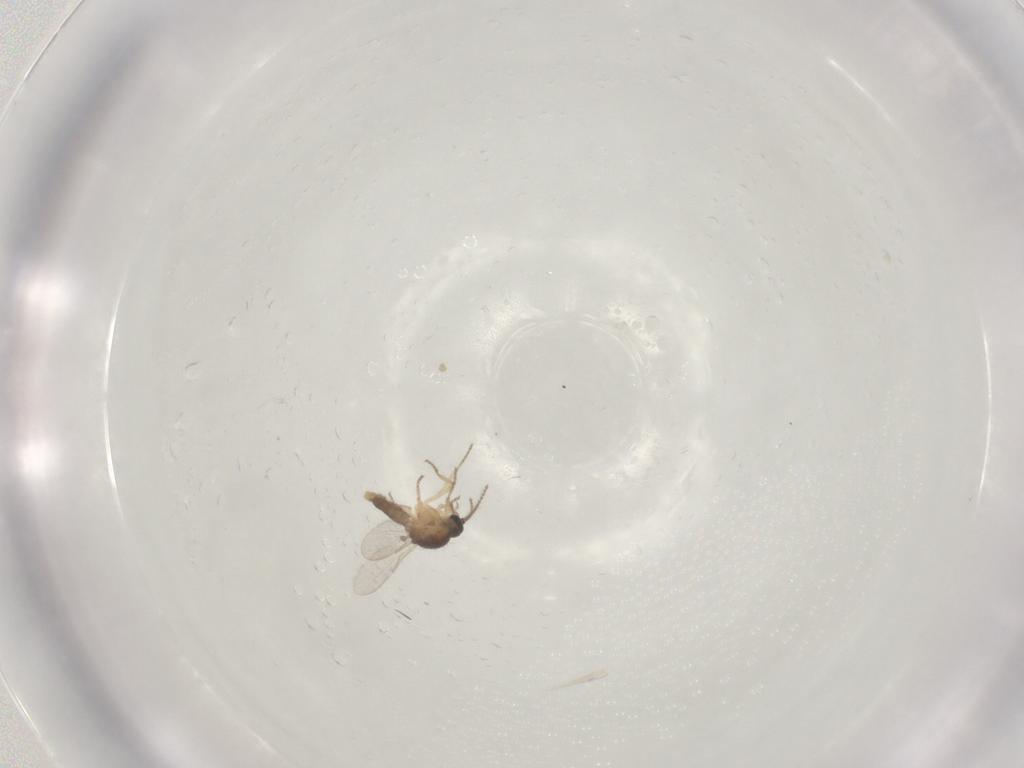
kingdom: Animalia
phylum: Arthropoda
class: Insecta
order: Diptera
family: Ceratopogonidae
